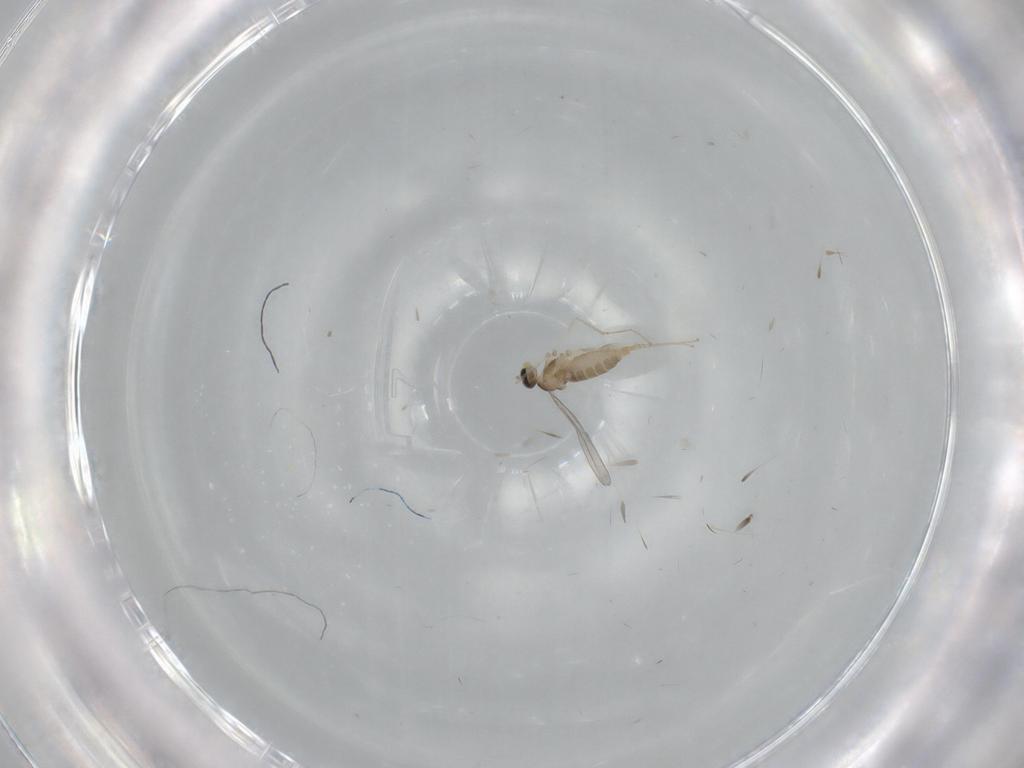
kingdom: Animalia
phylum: Arthropoda
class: Insecta
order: Diptera
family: Cecidomyiidae
